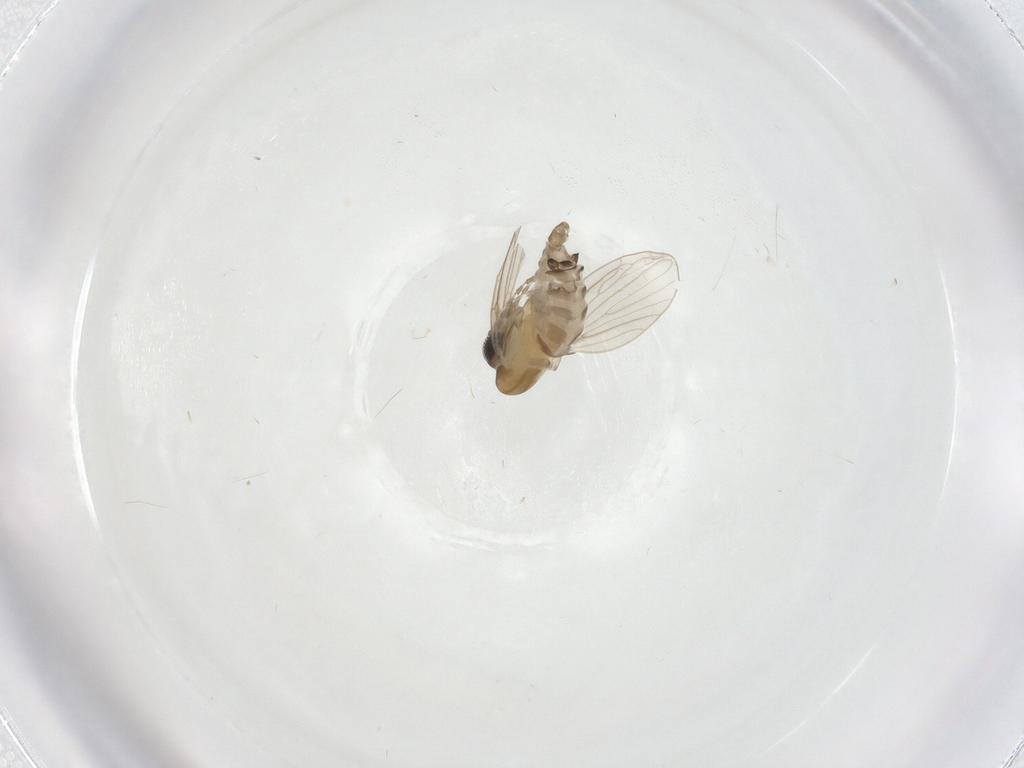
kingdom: Animalia
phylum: Arthropoda
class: Insecta
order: Diptera
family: Psychodidae
